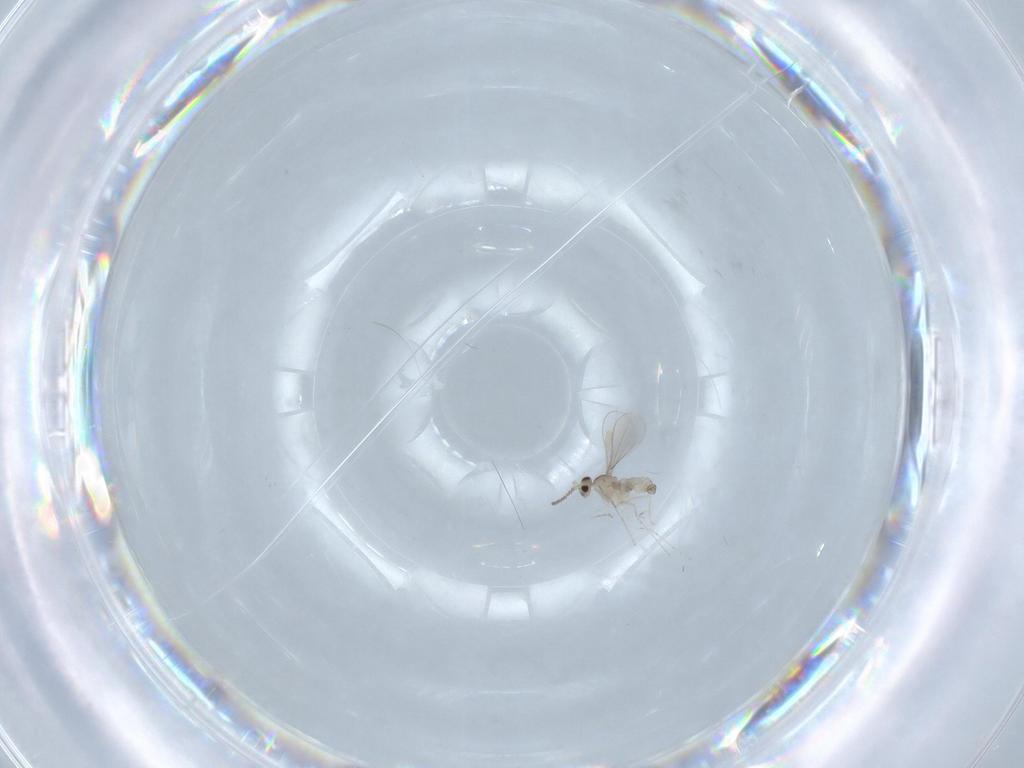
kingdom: Animalia
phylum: Arthropoda
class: Insecta
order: Diptera
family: Cecidomyiidae
